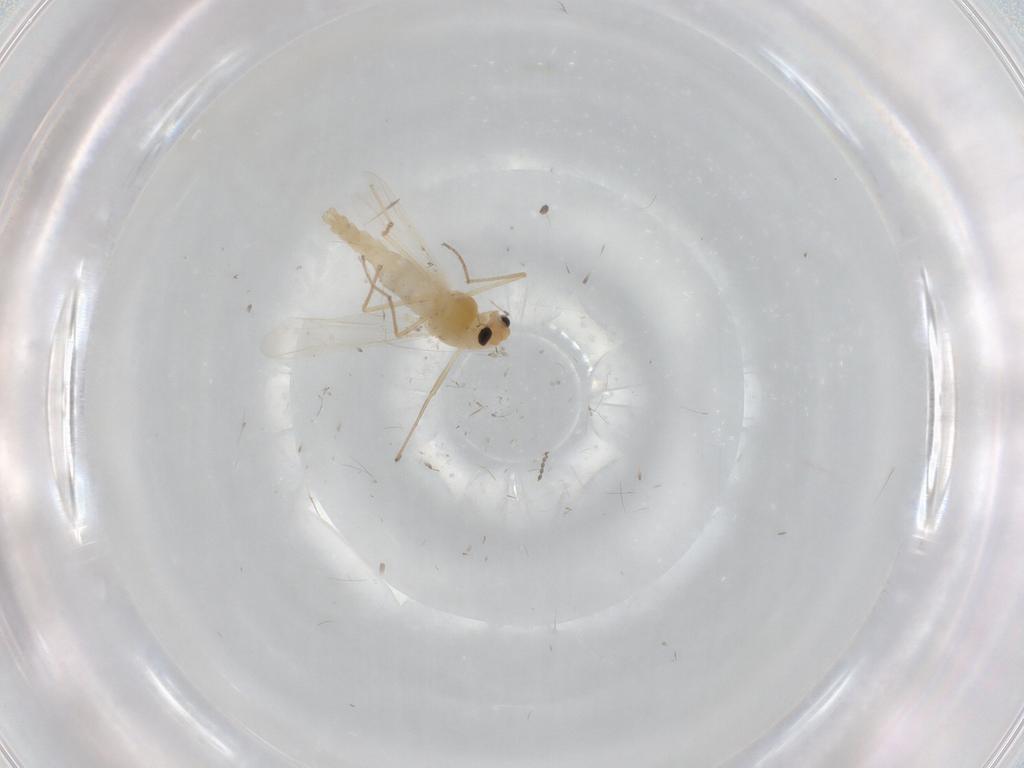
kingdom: Animalia
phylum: Arthropoda
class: Insecta
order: Diptera
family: Chironomidae
